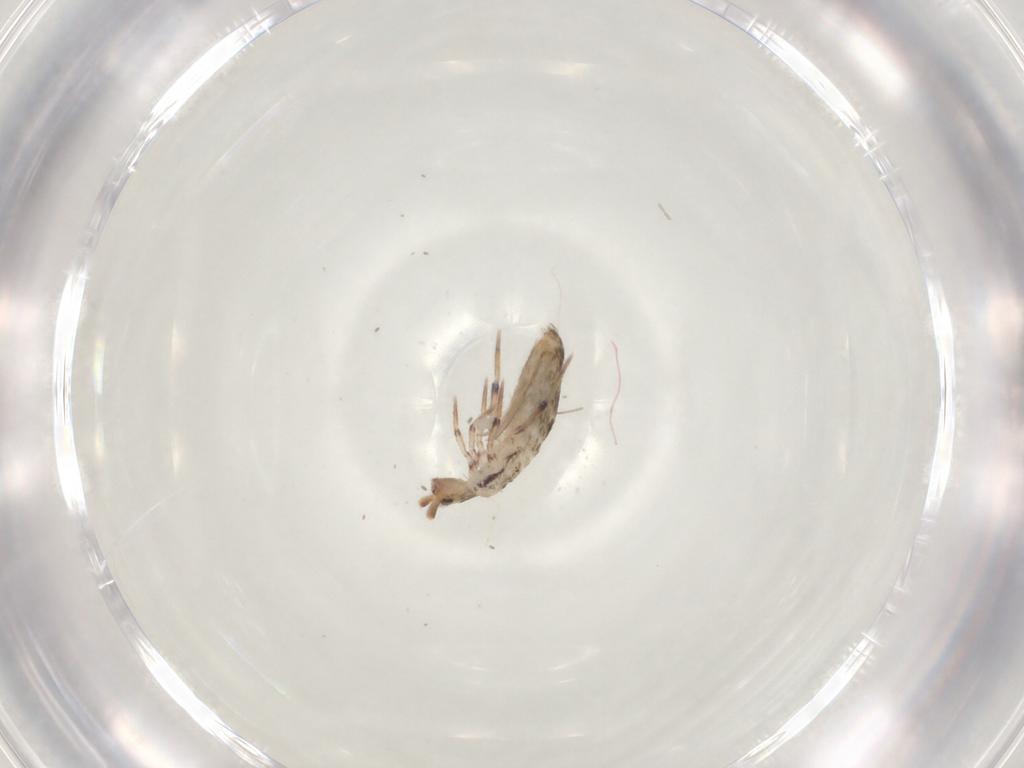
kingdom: Animalia
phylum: Arthropoda
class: Collembola
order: Entomobryomorpha
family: Entomobryidae
